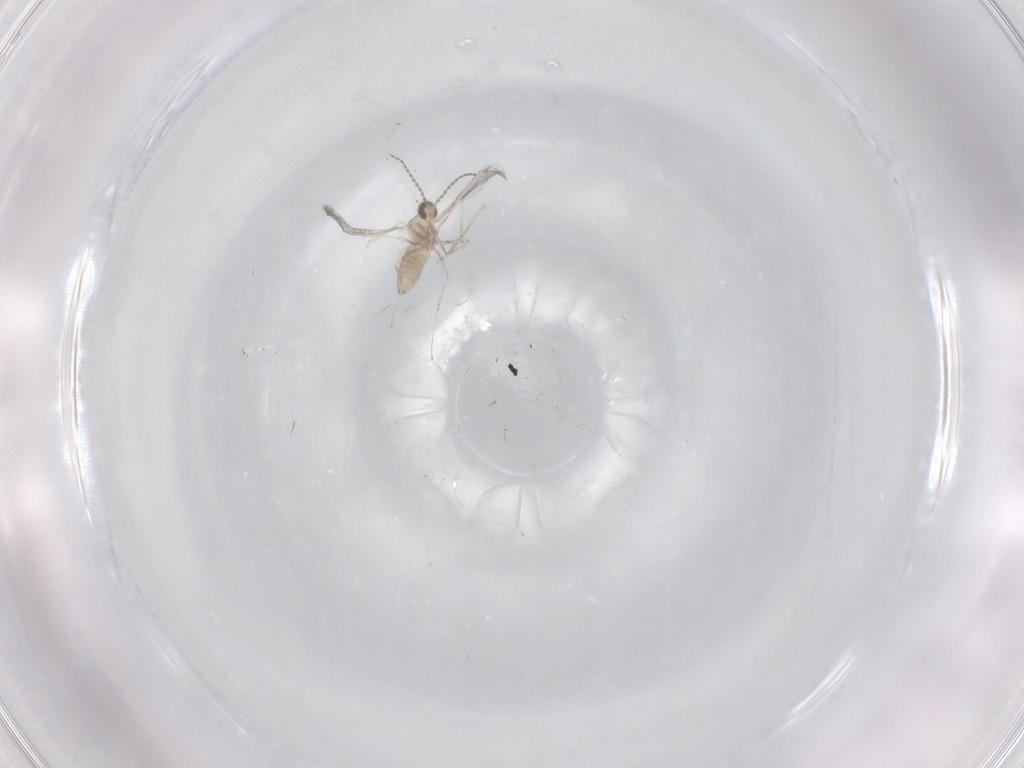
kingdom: Animalia
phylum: Arthropoda
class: Insecta
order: Diptera
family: Cecidomyiidae
